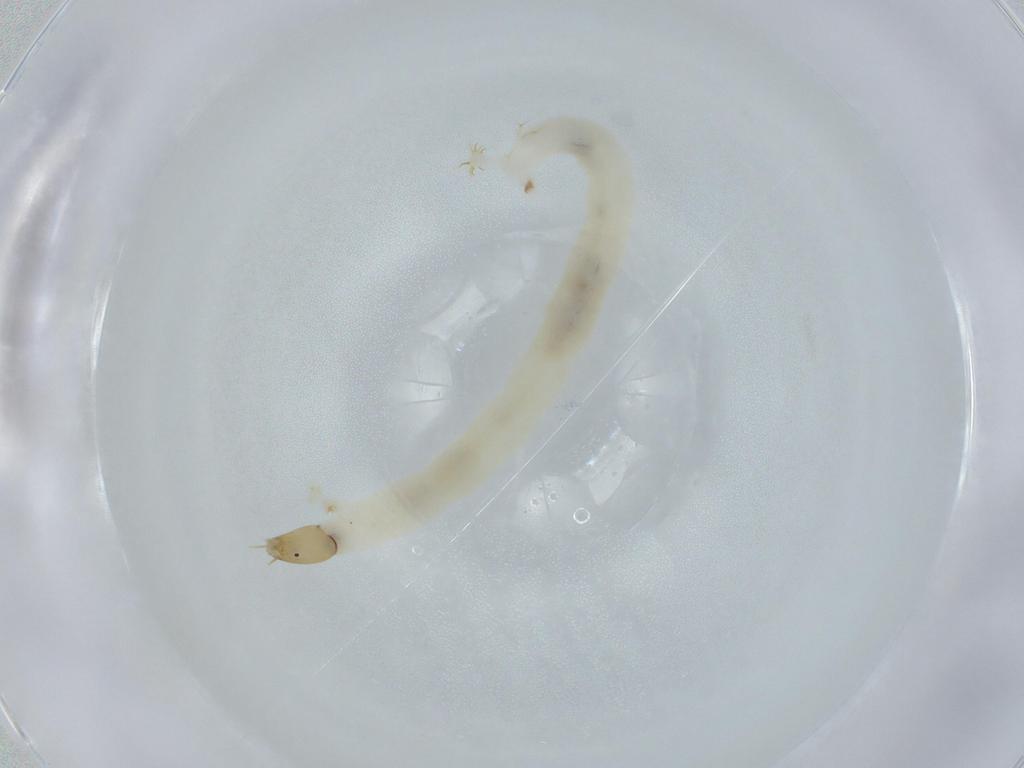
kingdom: Animalia
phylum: Arthropoda
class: Insecta
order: Diptera
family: Chironomidae
